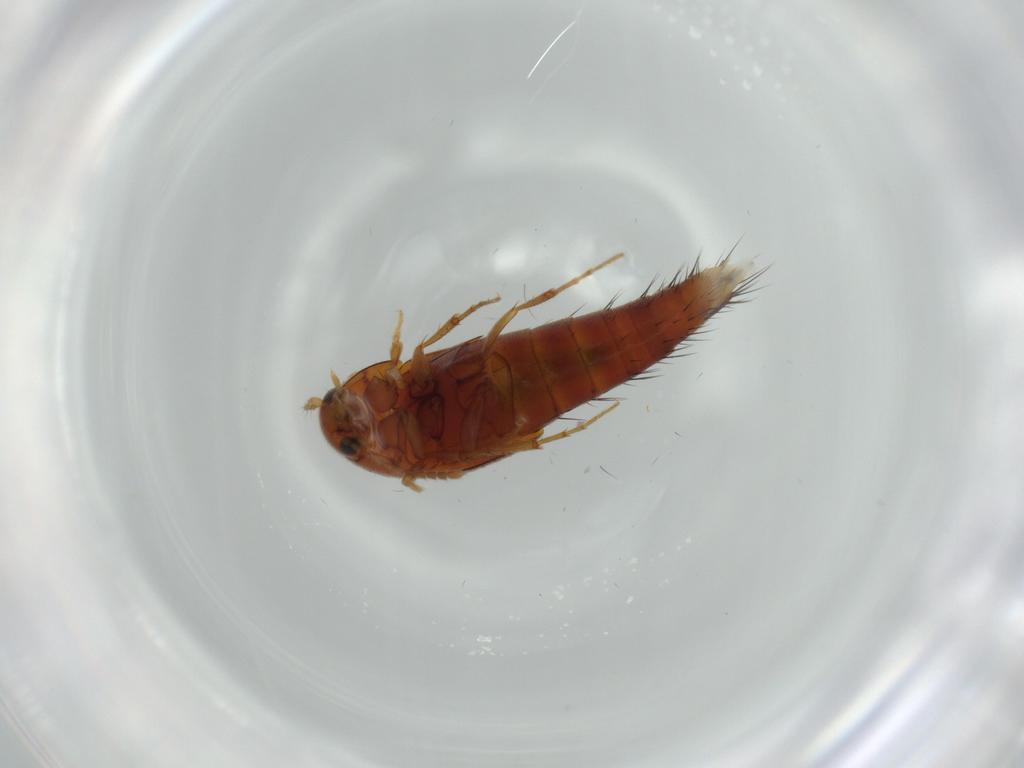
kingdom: Animalia
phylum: Arthropoda
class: Insecta
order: Coleoptera
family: Staphylinidae
